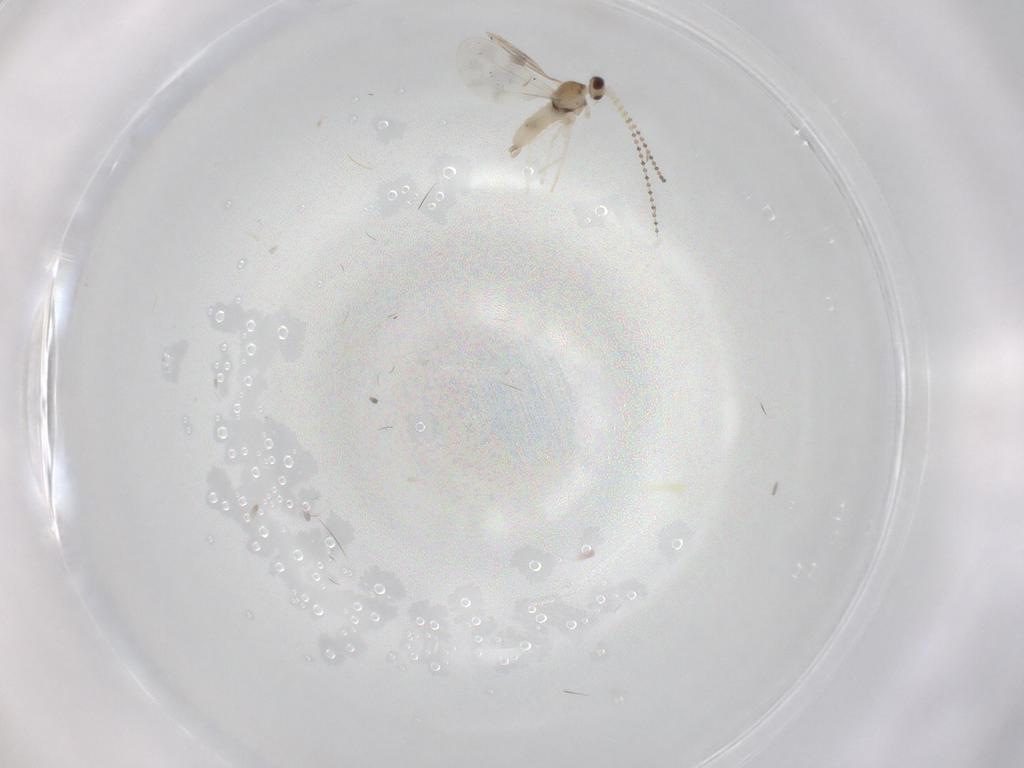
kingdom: Animalia
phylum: Arthropoda
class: Insecta
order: Diptera
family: Cecidomyiidae
